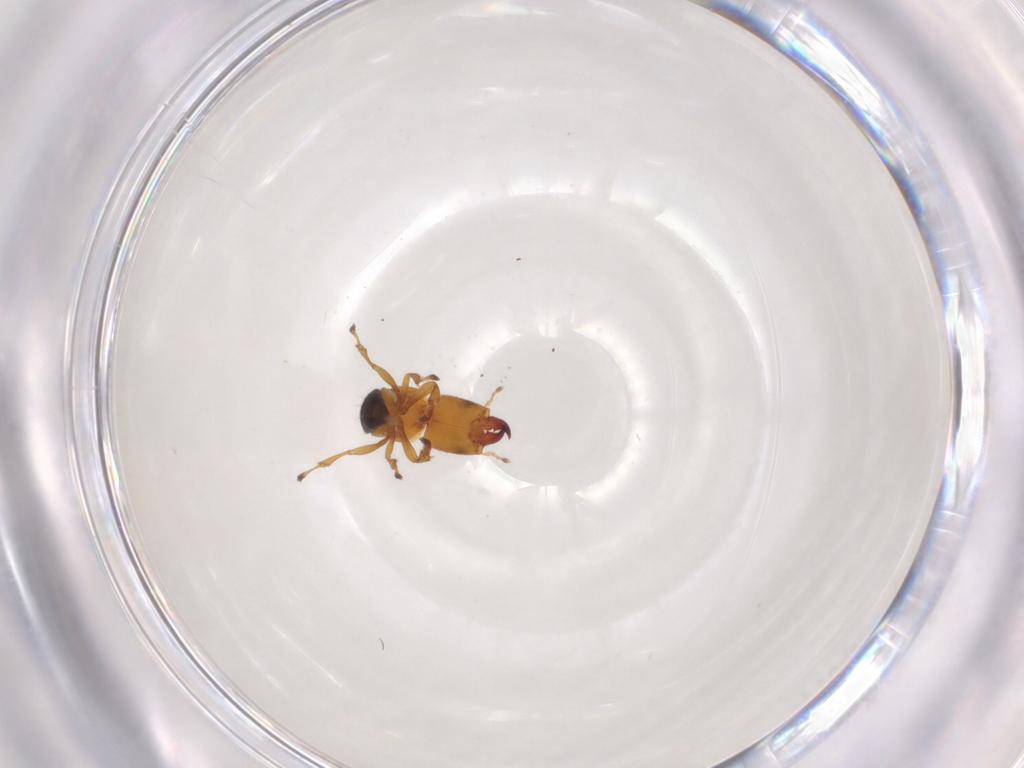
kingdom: Animalia
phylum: Arthropoda
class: Insecta
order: Hymenoptera
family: Pteromalidae
